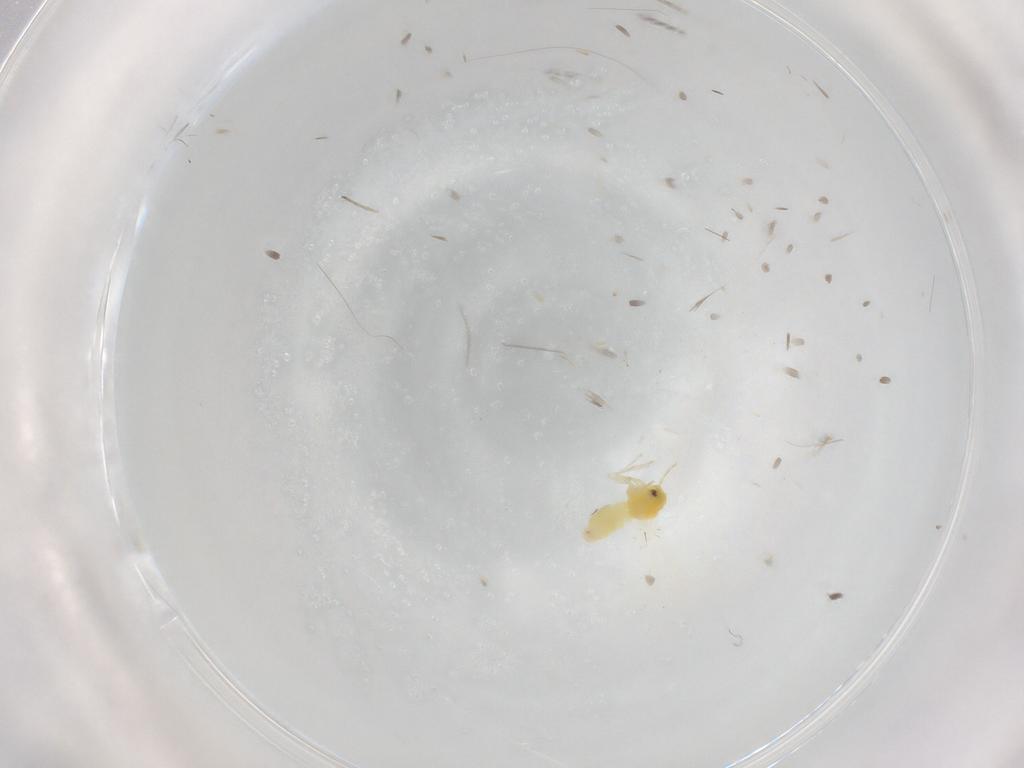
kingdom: Animalia
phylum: Arthropoda
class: Insecta
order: Hemiptera
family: Aleyrodidae
